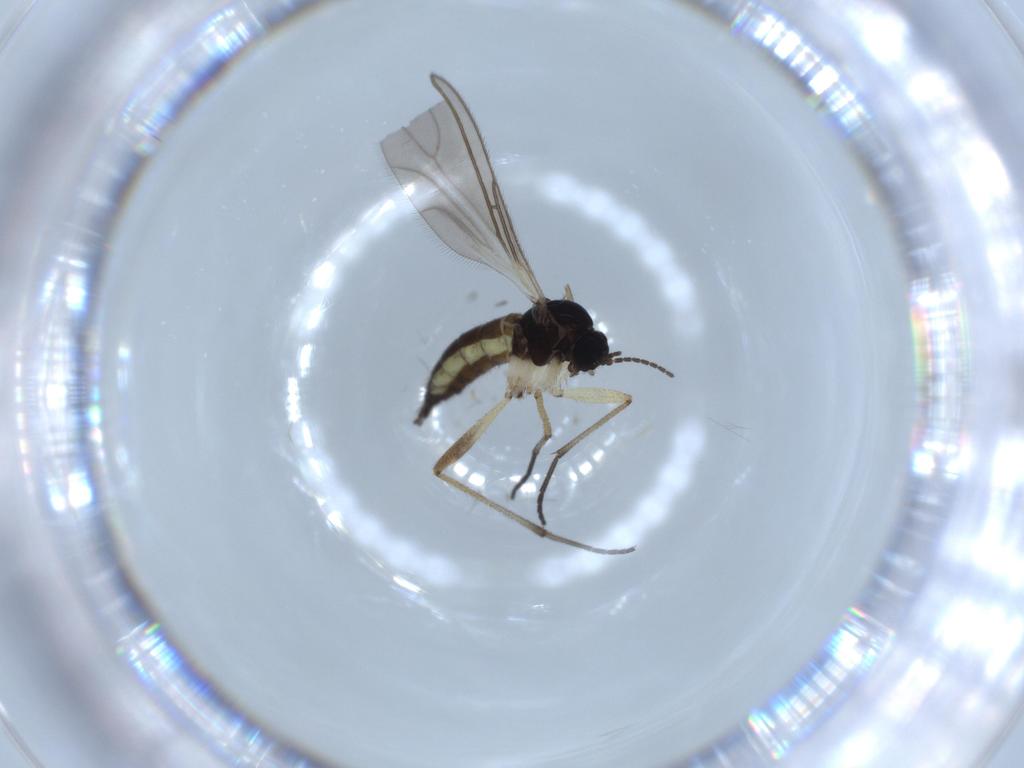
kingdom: Animalia
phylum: Arthropoda
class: Insecta
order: Diptera
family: Sciaridae
